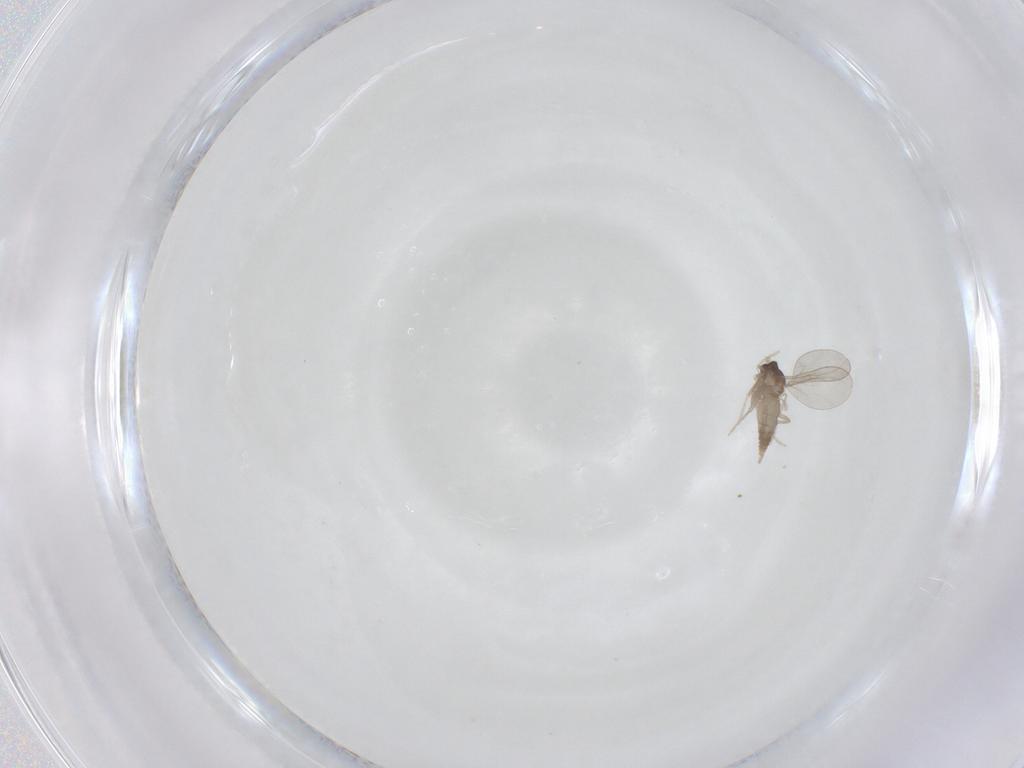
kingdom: Animalia
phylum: Arthropoda
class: Insecta
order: Diptera
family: Cecidomyiidae
